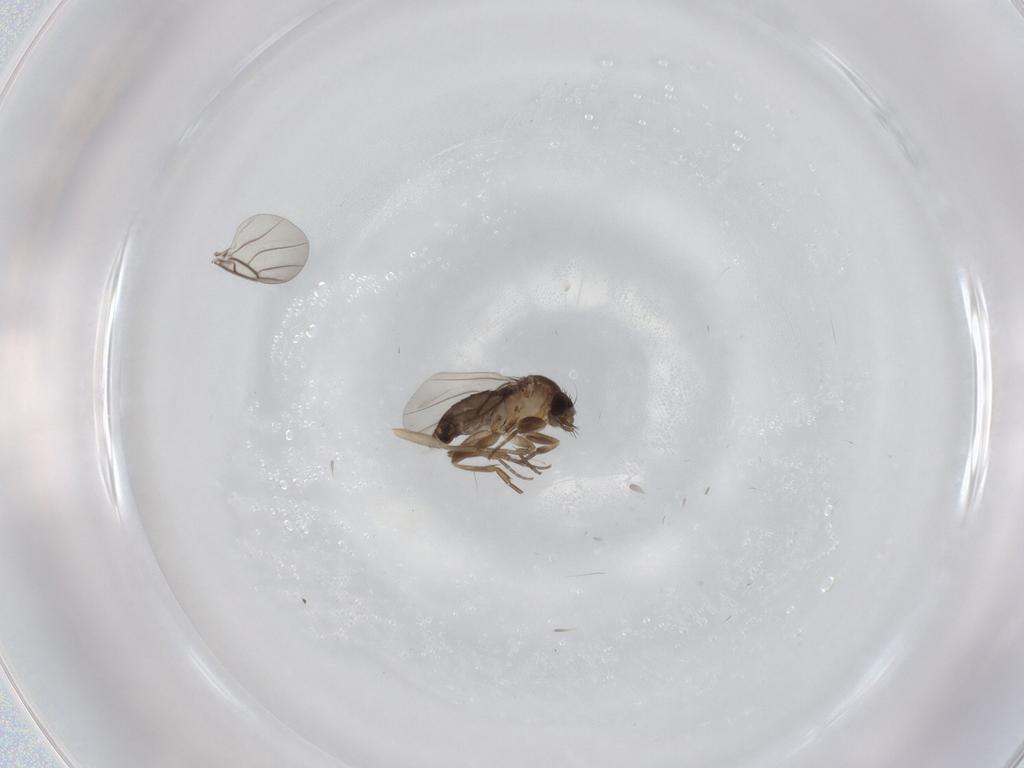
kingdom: Animalia
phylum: Arthropoda
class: Insecta
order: Diptera
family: Phoridae
